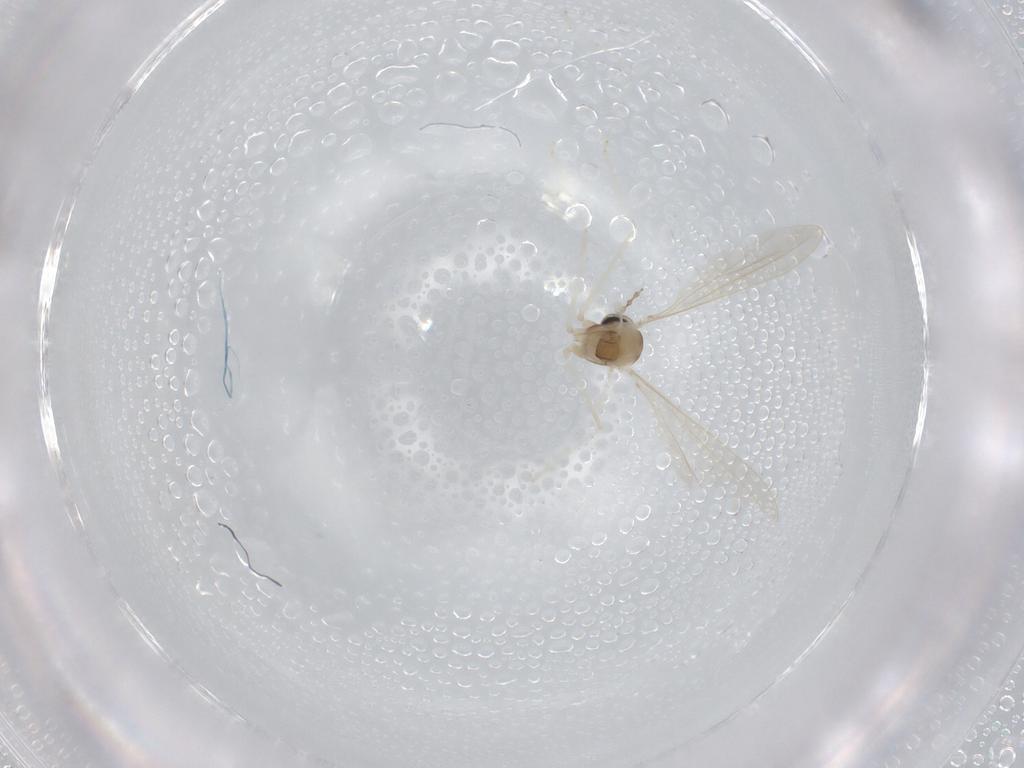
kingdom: Animalia
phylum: Arthropoda
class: Insecta
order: Diptera
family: Cecidomyiidae
